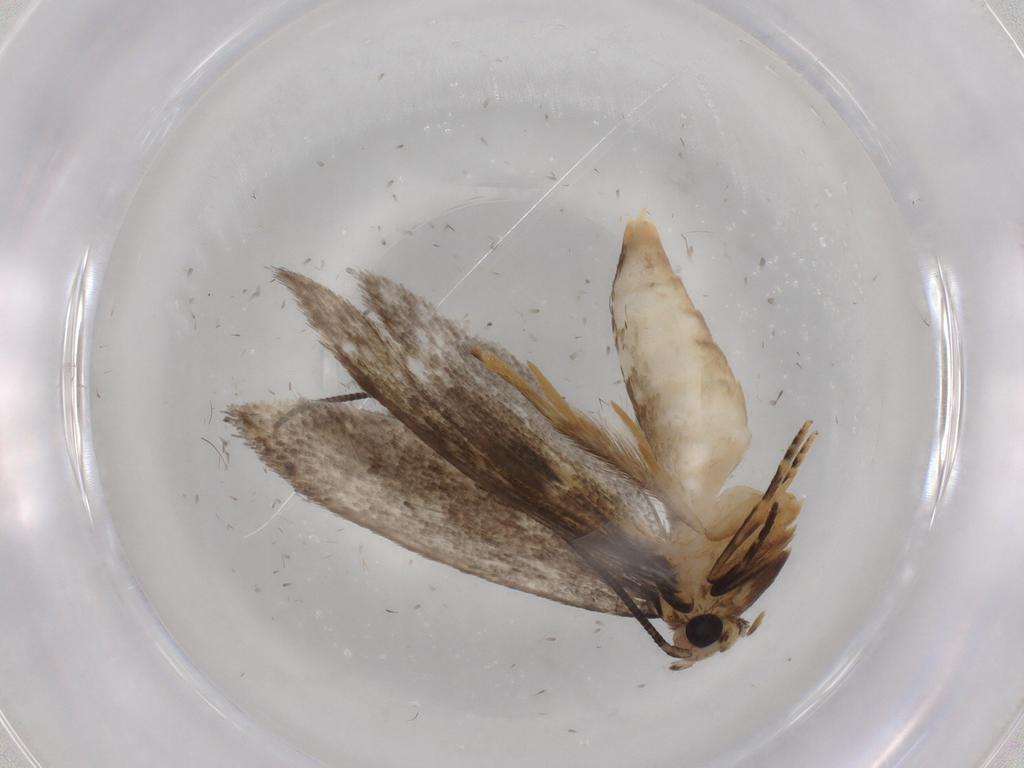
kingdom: Animalia
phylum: Arthropoda
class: Insecta
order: Lepidoptera
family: Tineidae
